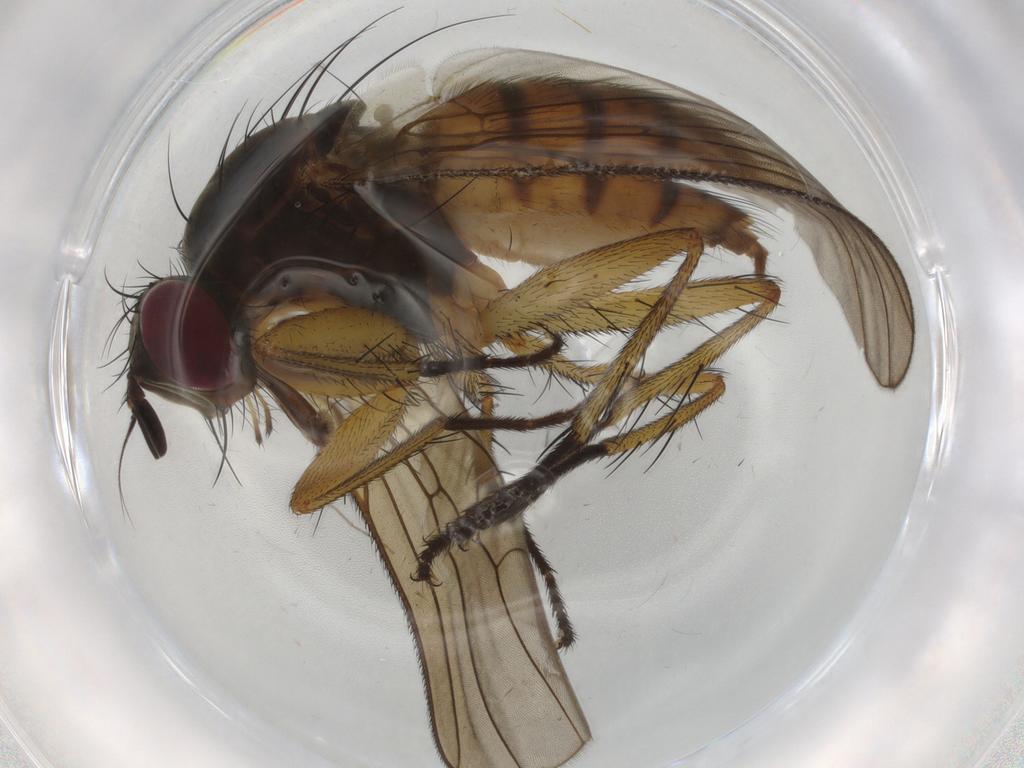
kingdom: Animalia
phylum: Arthropoda
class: Insecta
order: Diptera
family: Muscidae
